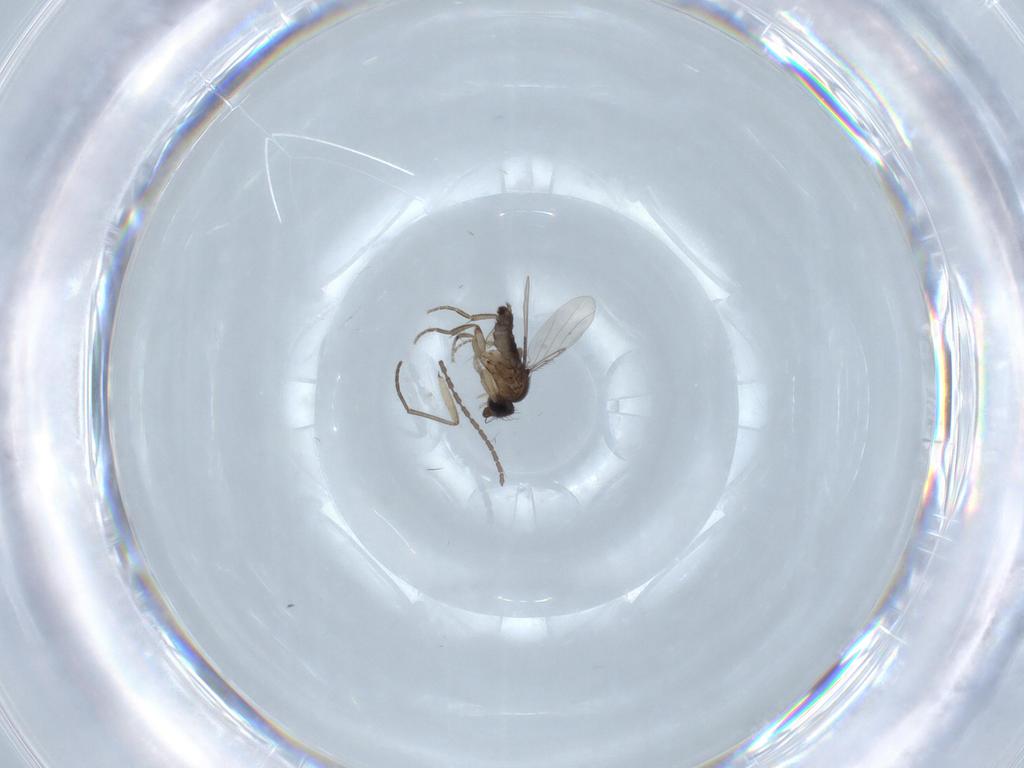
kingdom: Animalia
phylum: Arthropoda
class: Insecta
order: Diptera
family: Phoridae
